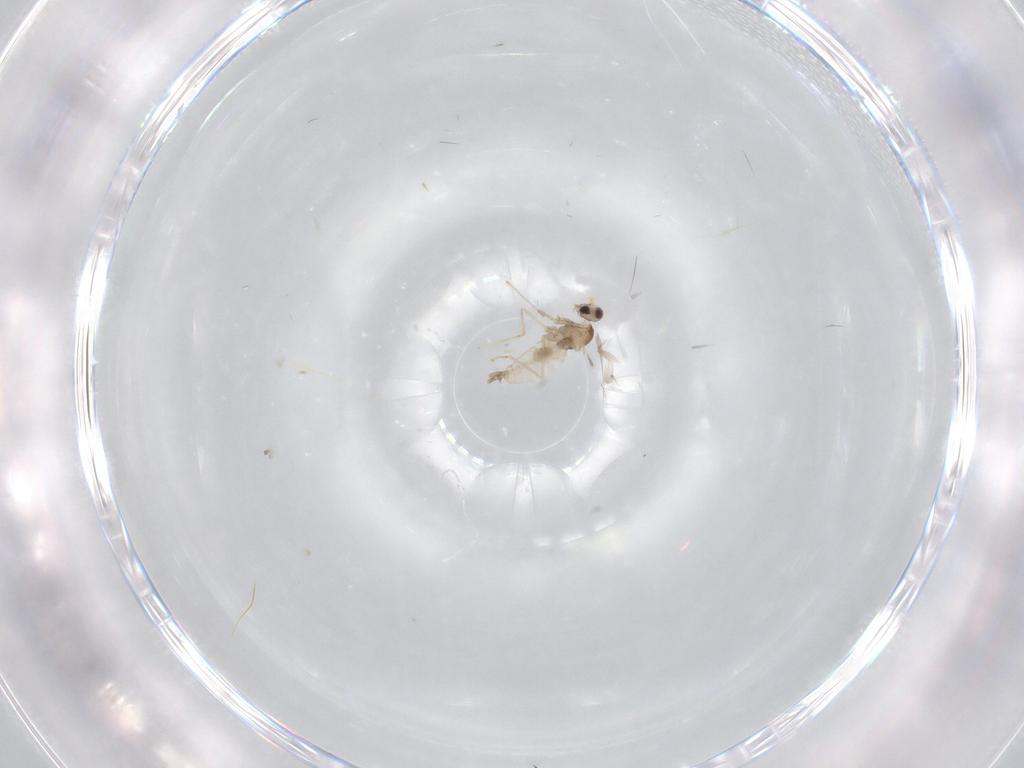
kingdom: Animalia
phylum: Arthropoda
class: Insecta
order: Diptera
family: Cecidomyiidae
